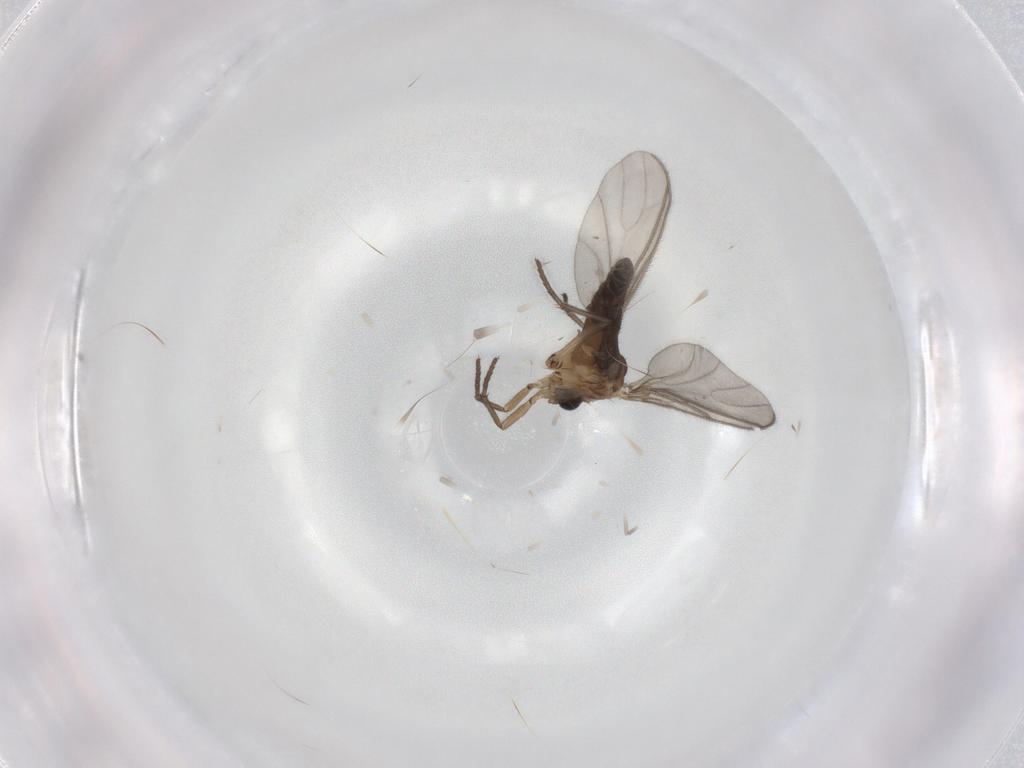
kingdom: Animalia
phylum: Arthropoda
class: Insecta
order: Diptera
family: Sciaridae
